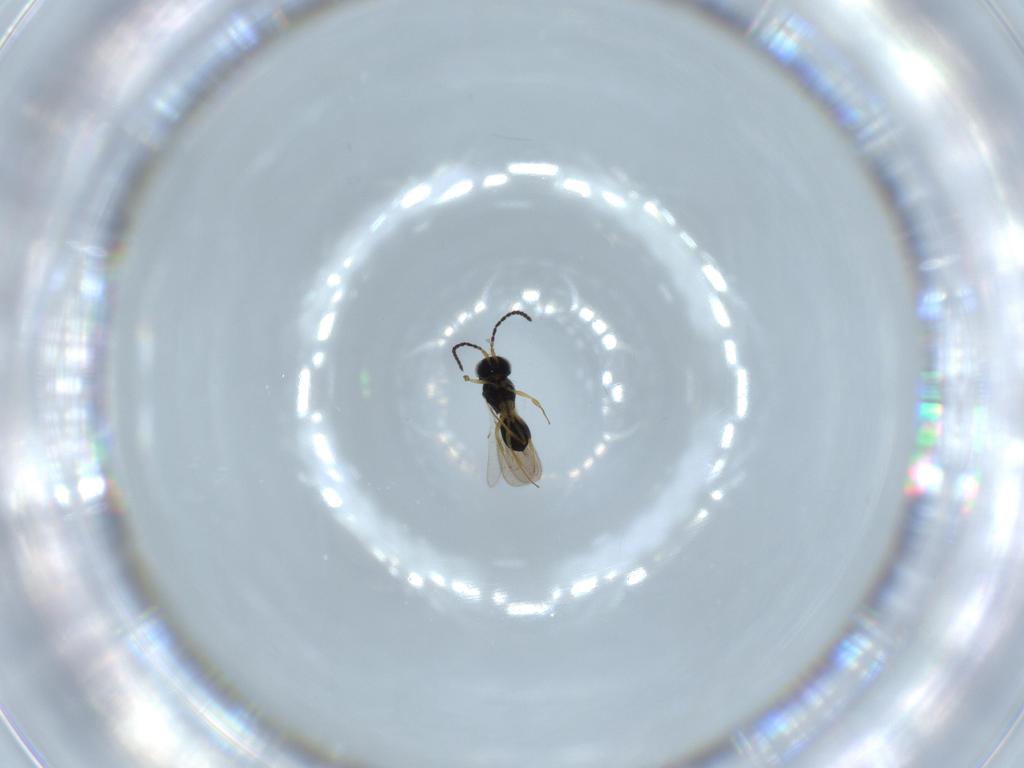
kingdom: Animalia
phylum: Arthropoda
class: Insecta
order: Hymenoptera
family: Scelionidae
